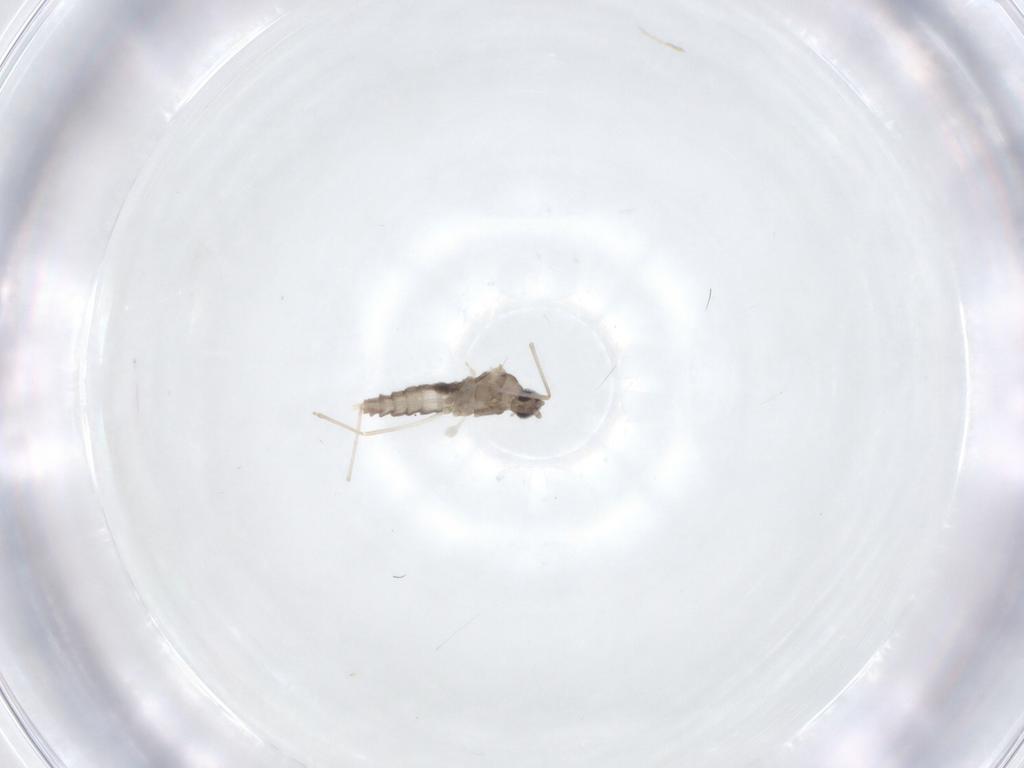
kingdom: Animalia
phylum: Arthropoda
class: Insecta
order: Diptera
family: Cecidomyiidae
